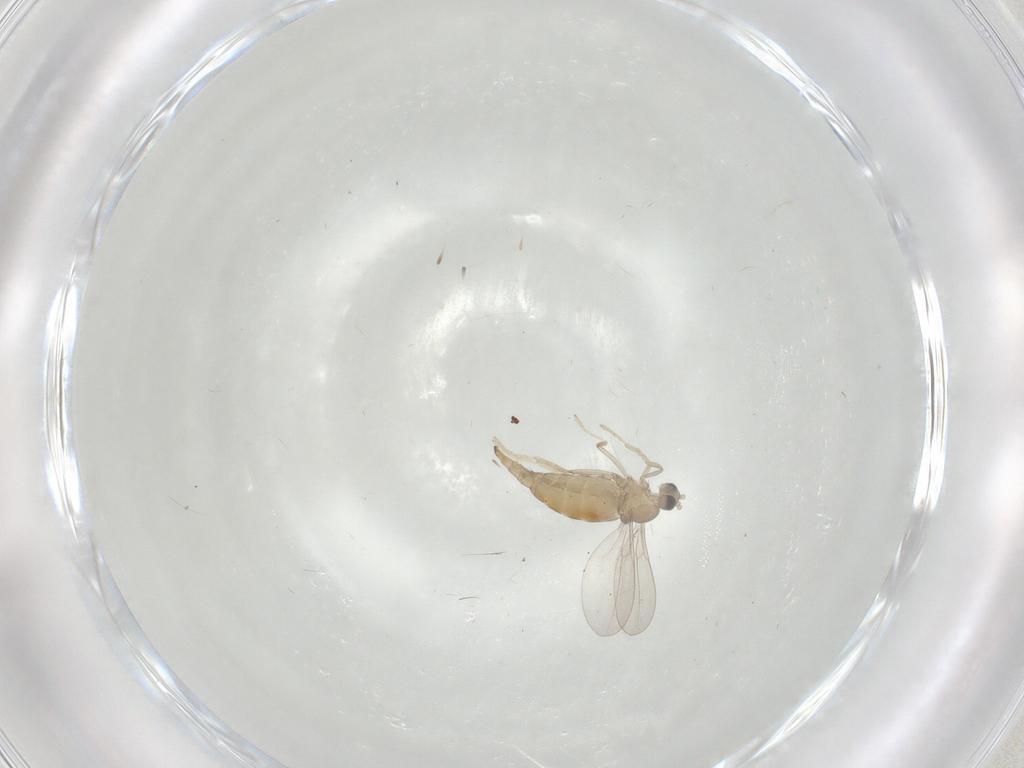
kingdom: Animalia
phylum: Arthropoda
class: Insecta
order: Diptera
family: Cecidomyiidae
